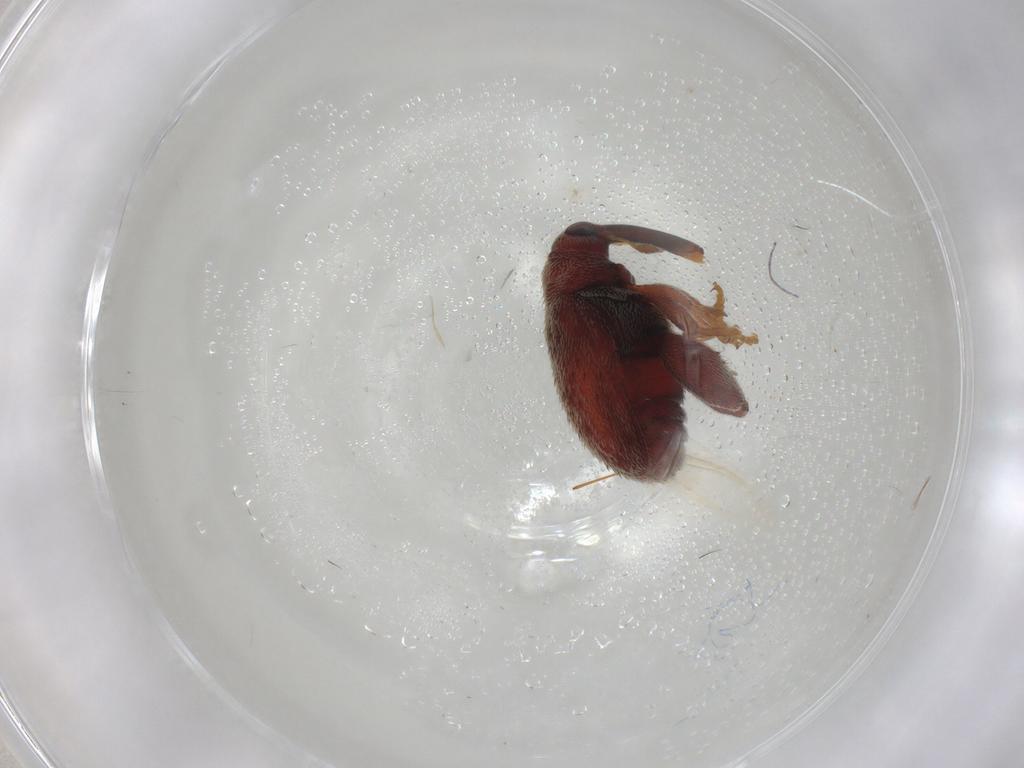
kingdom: Animalia
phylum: Arthropoda
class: Insecta
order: Coleoptera
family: Curculionidae
